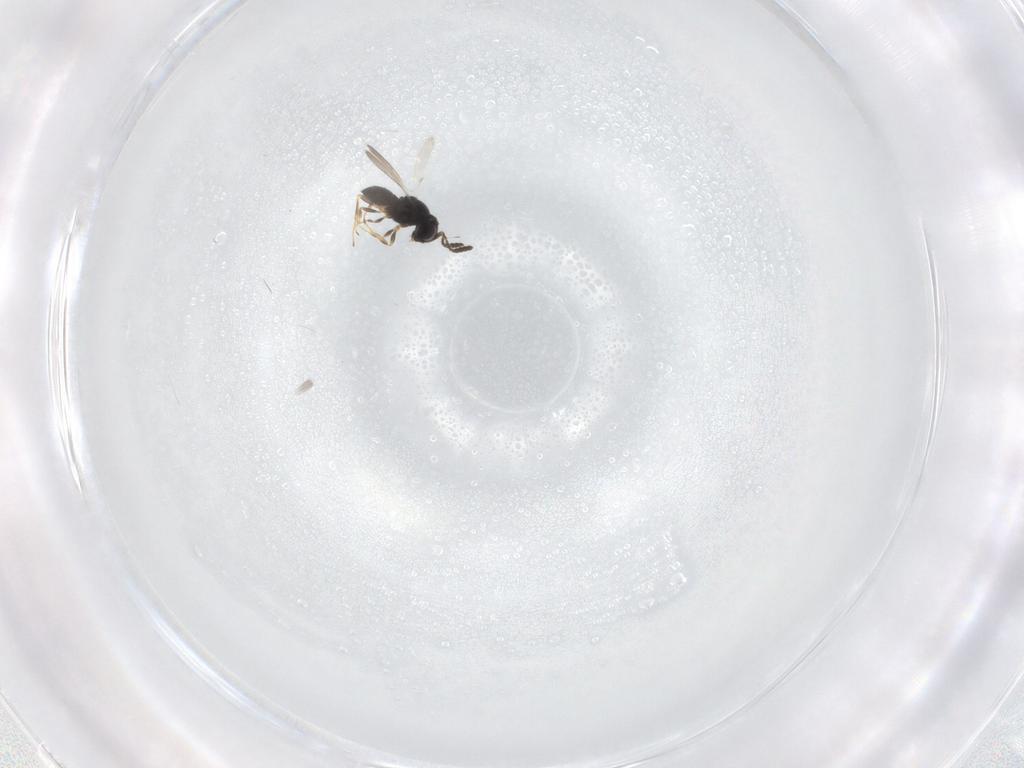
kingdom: Animalia
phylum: Arthropoda
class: Insecta
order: Hymenoptera
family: Scelionidae
